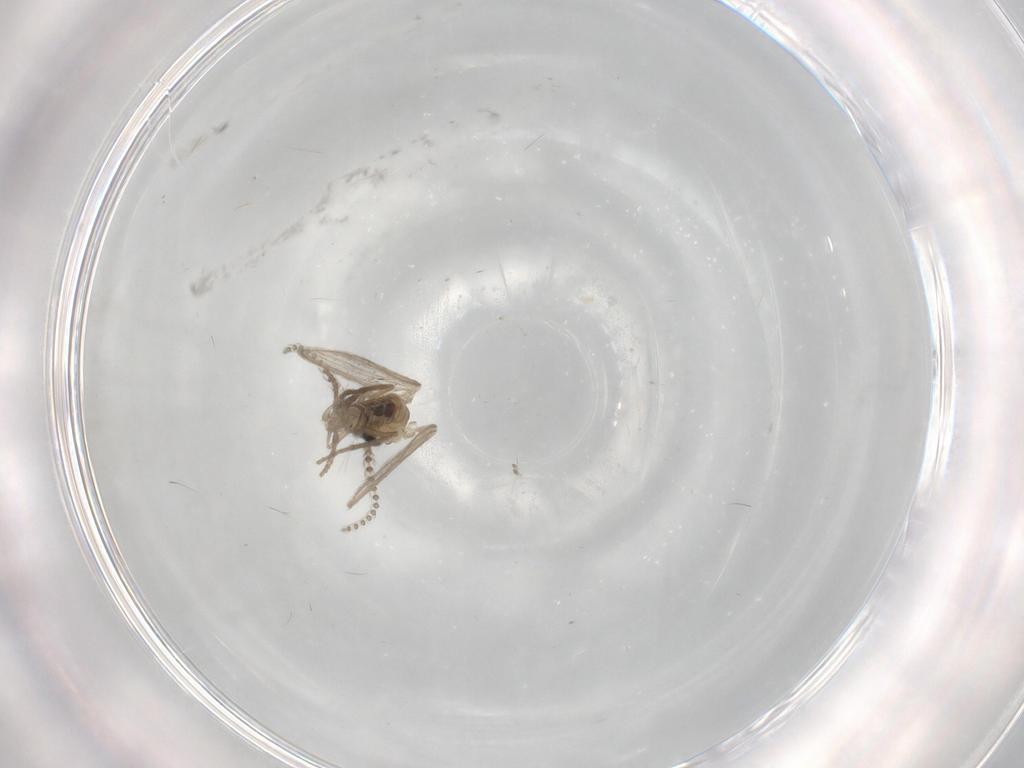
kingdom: Animalia
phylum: Arthropoda
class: Insecta
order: Diptera
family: Psychodidae
